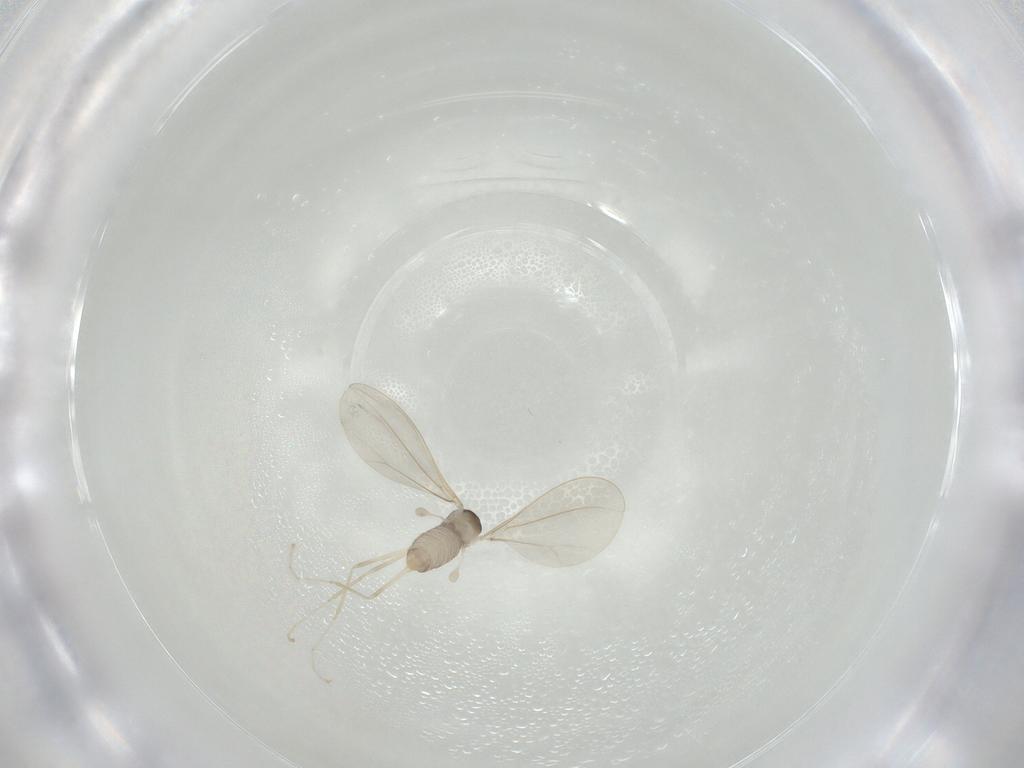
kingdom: Animalia
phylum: Arthropoda
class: Insecta
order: Diptera
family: Cecidomyiidae
